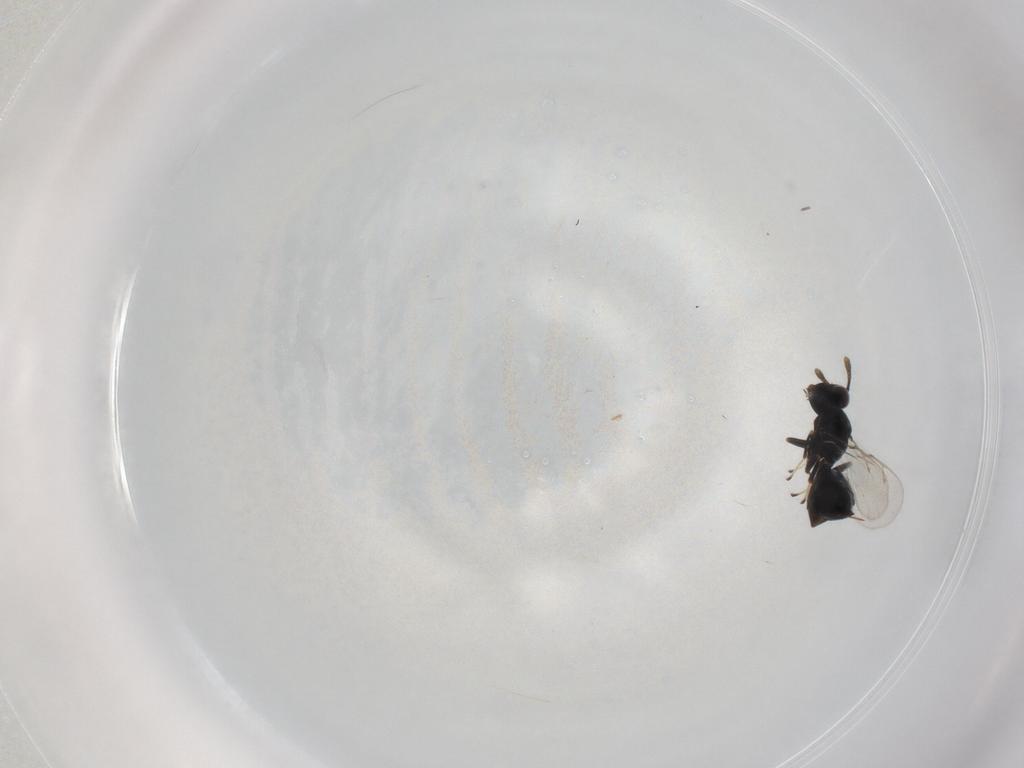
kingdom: Animalia
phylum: Arthropoda
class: Insecta
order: Hymenoptera
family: Pteromalidae
